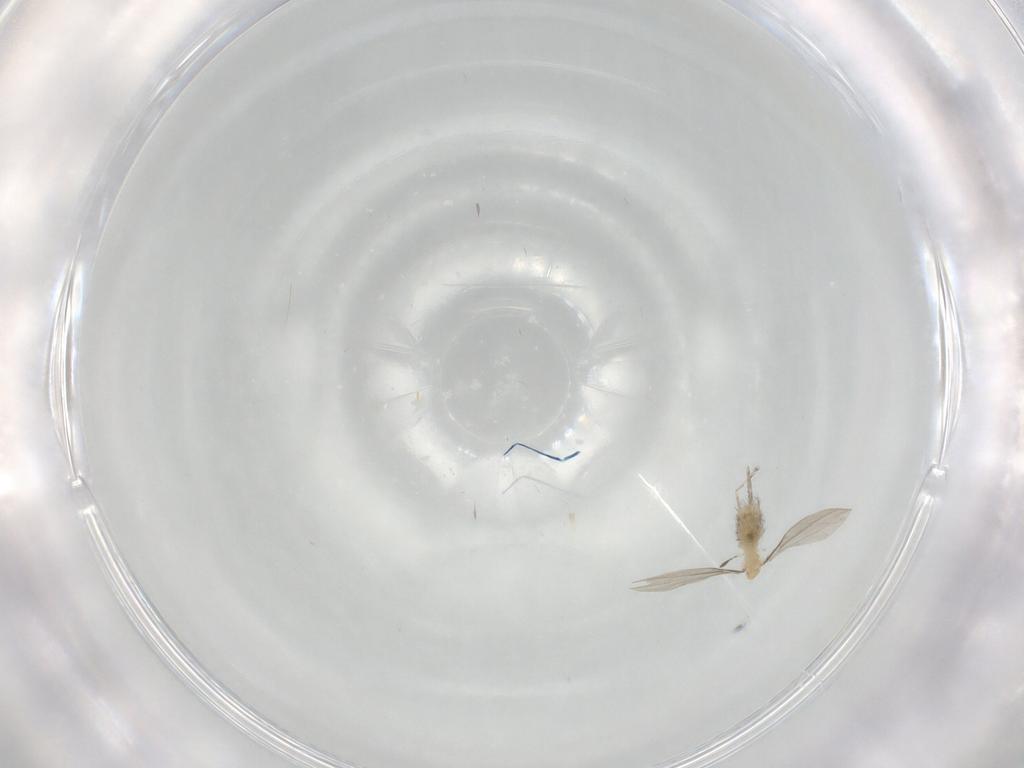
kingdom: Animalia
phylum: Arthropoda
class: Insecta
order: Diptera
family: Cecidomyiidae
